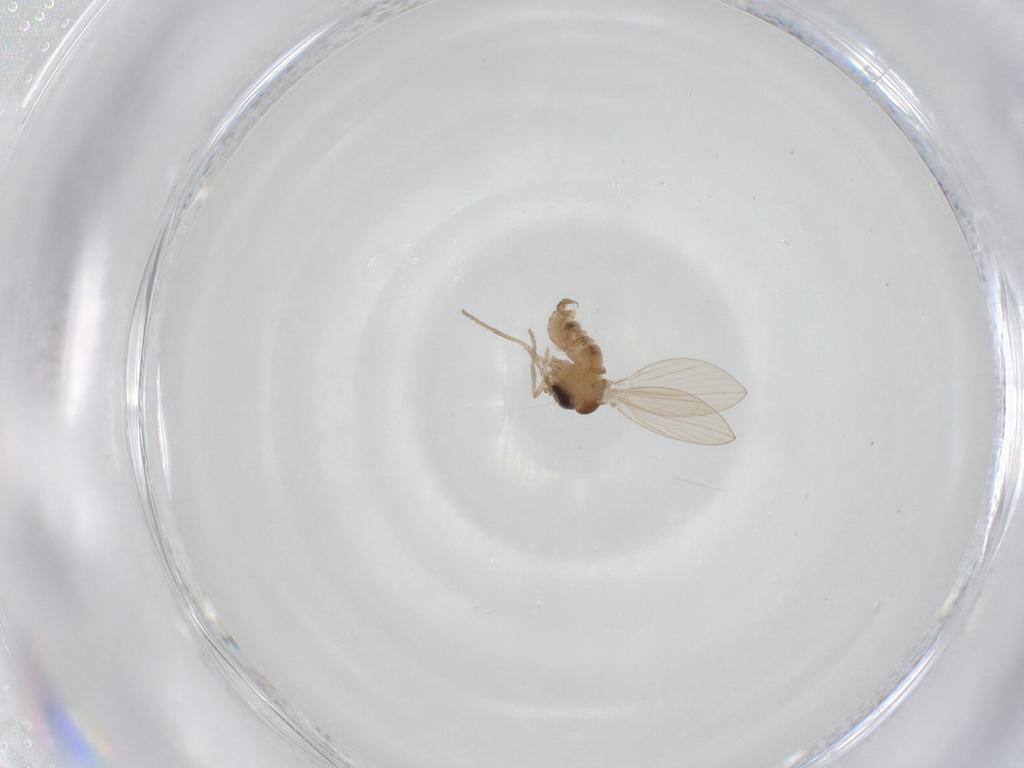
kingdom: Animalia
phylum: Arthropoda
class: Insecta
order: Diptera
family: Psychodidae
